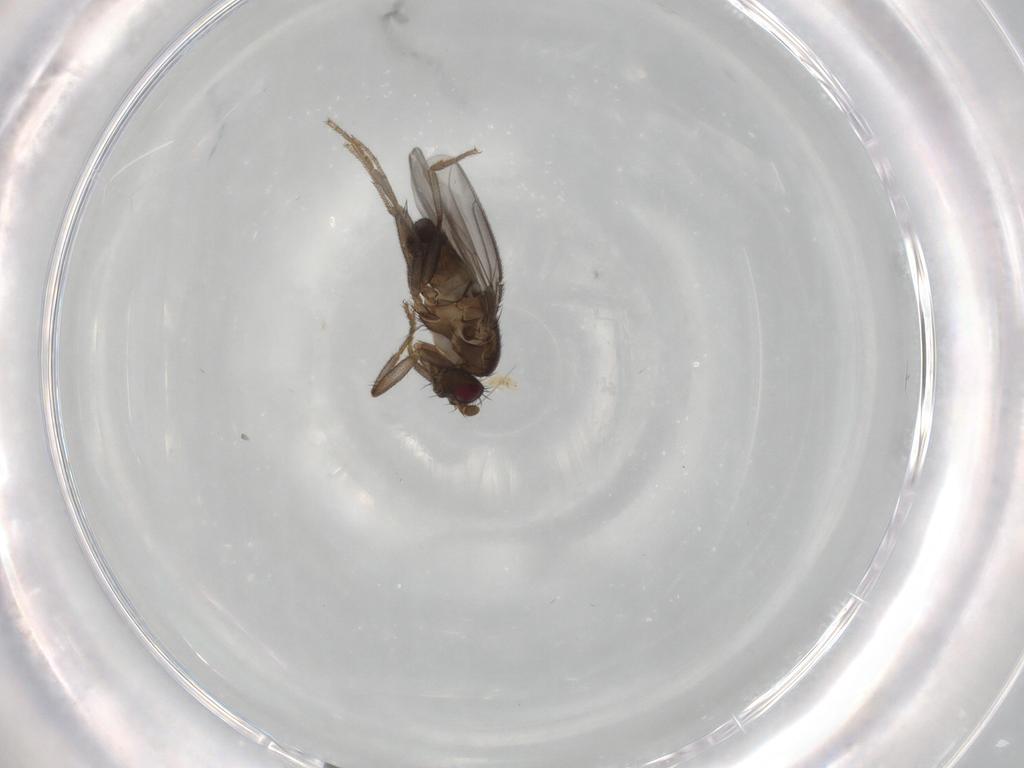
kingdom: Animalia
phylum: Arthropoda
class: Insecta
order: Diptera
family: Sphaeroceridae
